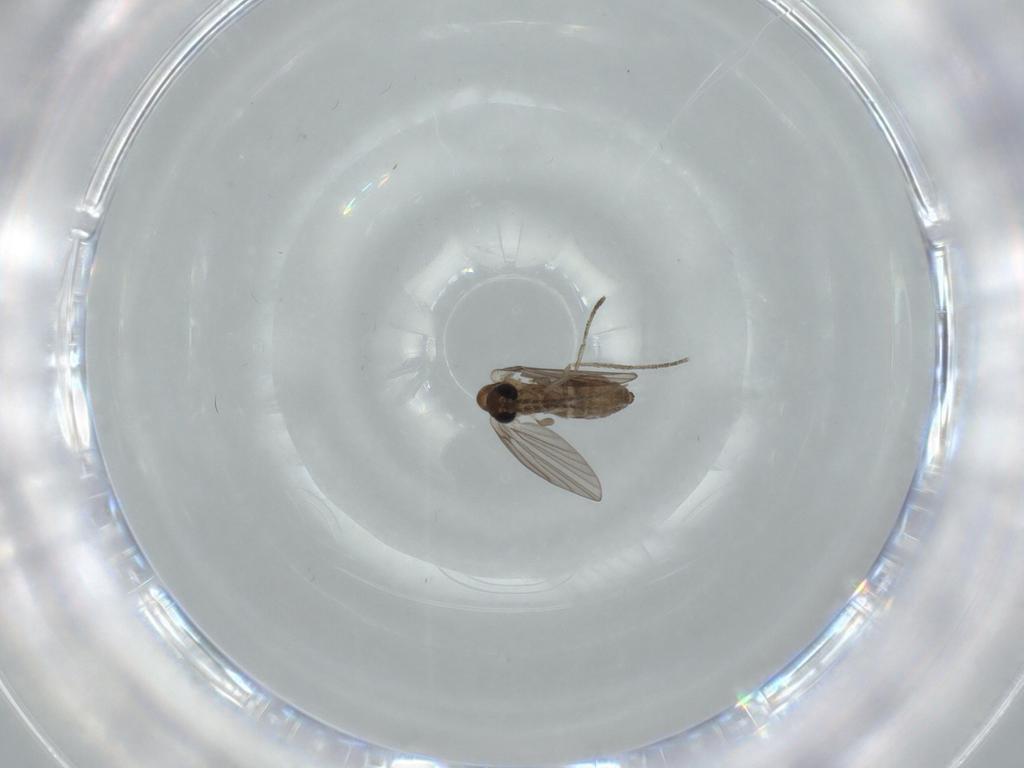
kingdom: Animalia
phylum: Arthropoda
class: Insecta
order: Diptera
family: Psychodidae
